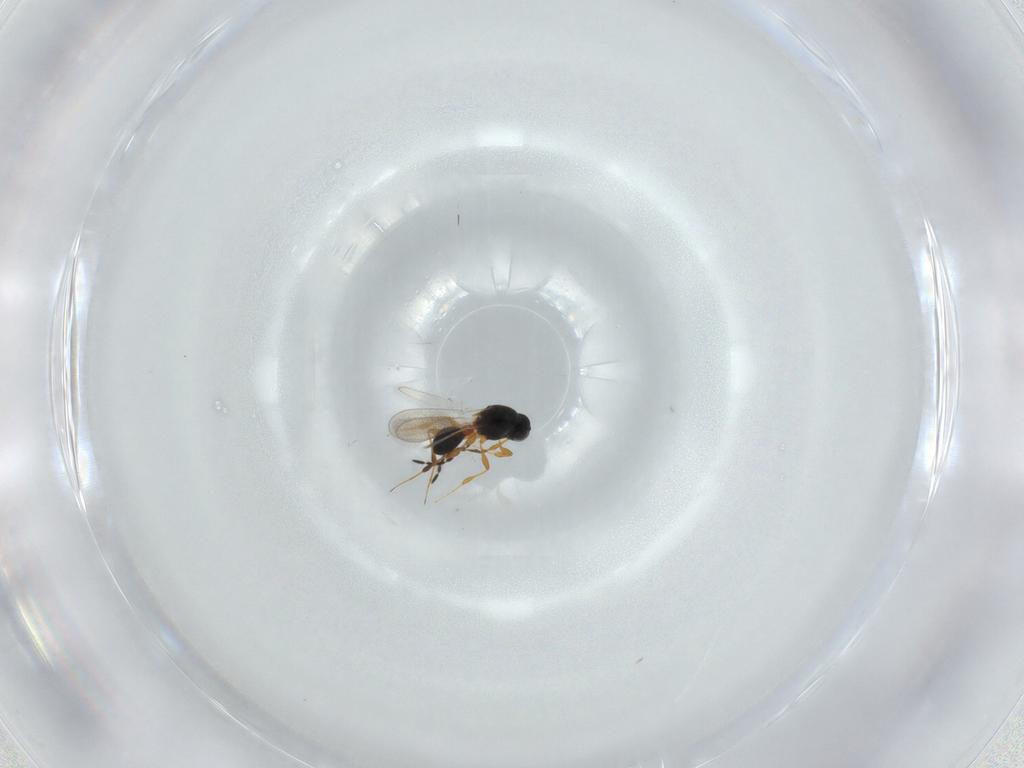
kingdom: Animalia
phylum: Arthropoda
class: Insecta
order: Hymenoptera
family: Platygastridae
